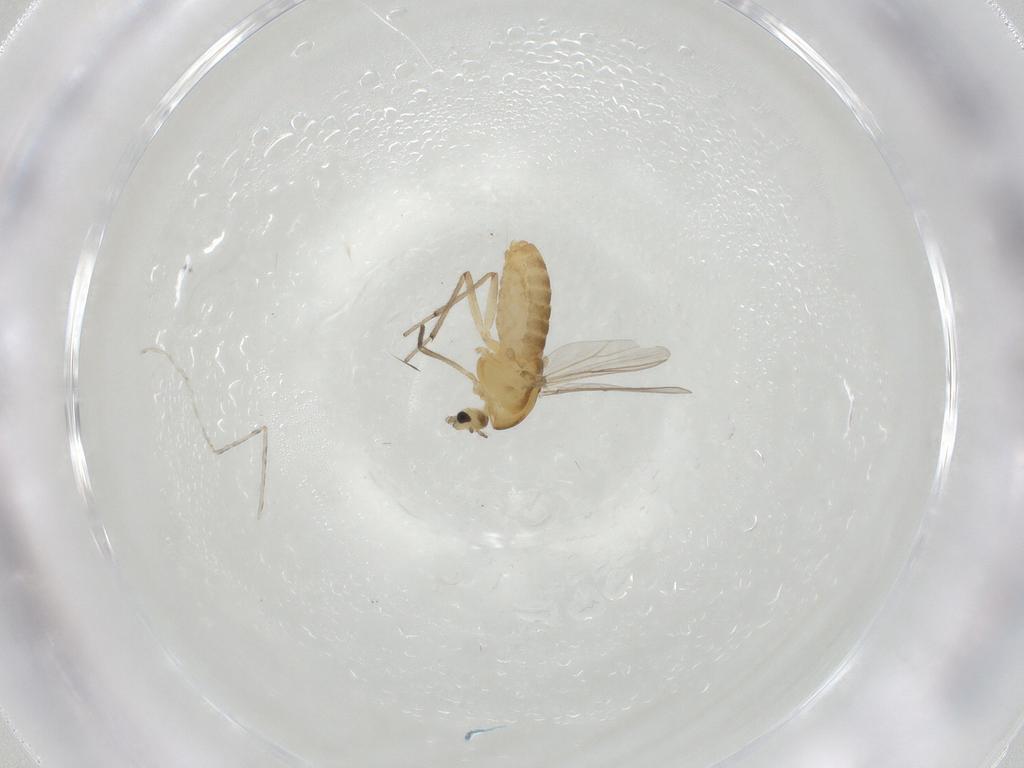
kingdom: Animalia
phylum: Arthropoda
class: Insecta
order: Diptera
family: Chironomidae
